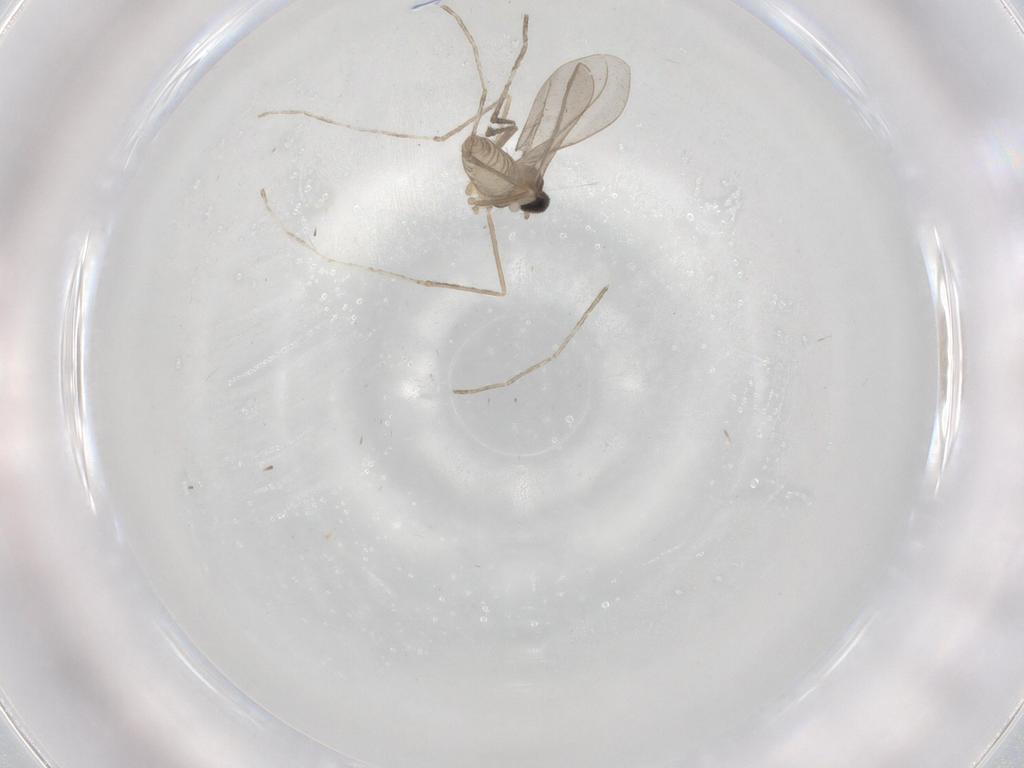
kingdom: Animalia
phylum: Arthropoda
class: Insecta
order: Diptera
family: Cecidomyiidae
